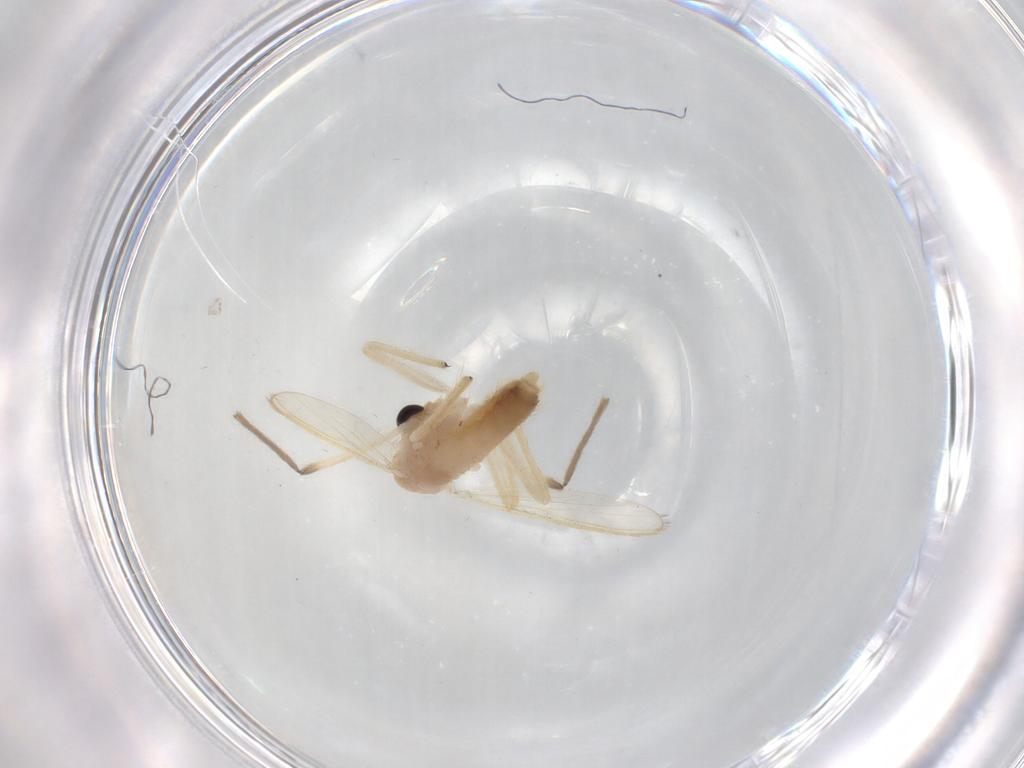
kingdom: Animalia
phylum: Arthropoda
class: Insecta
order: Diptera
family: Chironomidae
